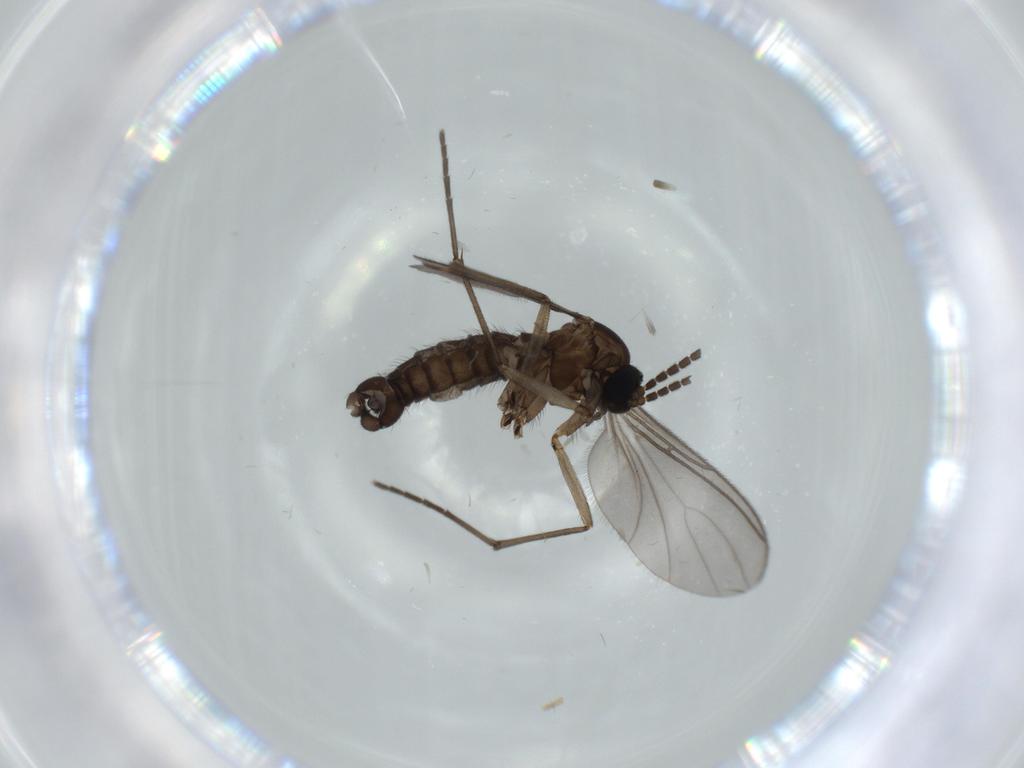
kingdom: Animalia
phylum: Arthropoda
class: Insecta
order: Diptera
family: Sciaridae
